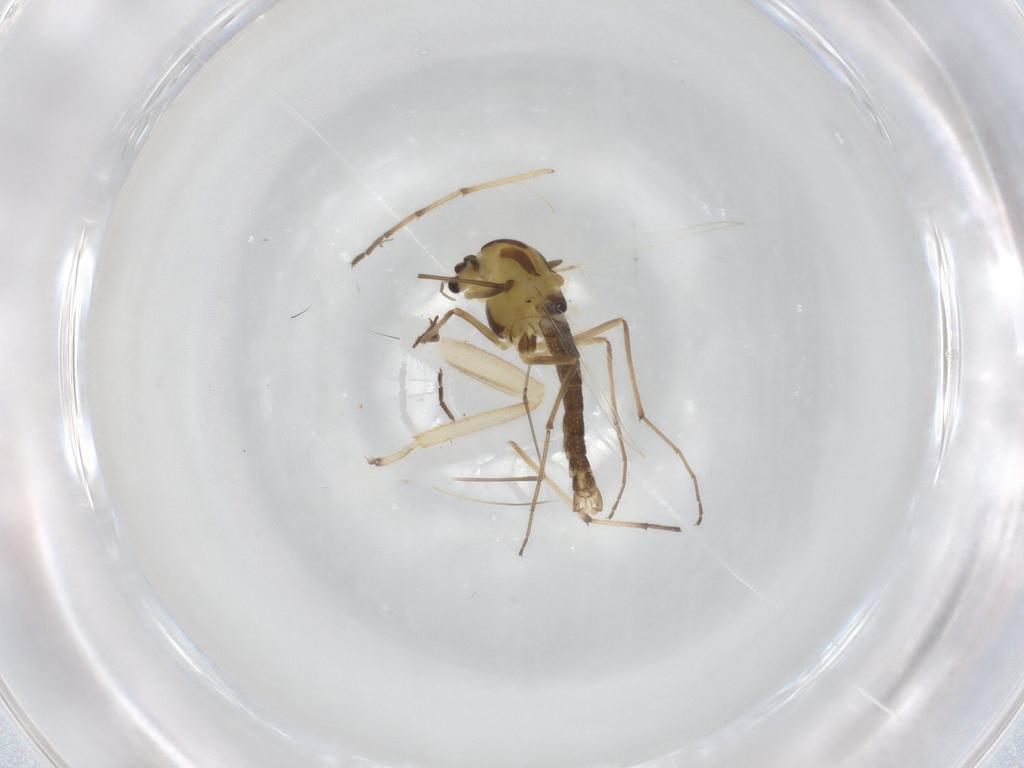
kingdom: Animalia
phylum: Arthropoda
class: Insecta
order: Diptera
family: Chironomidae
